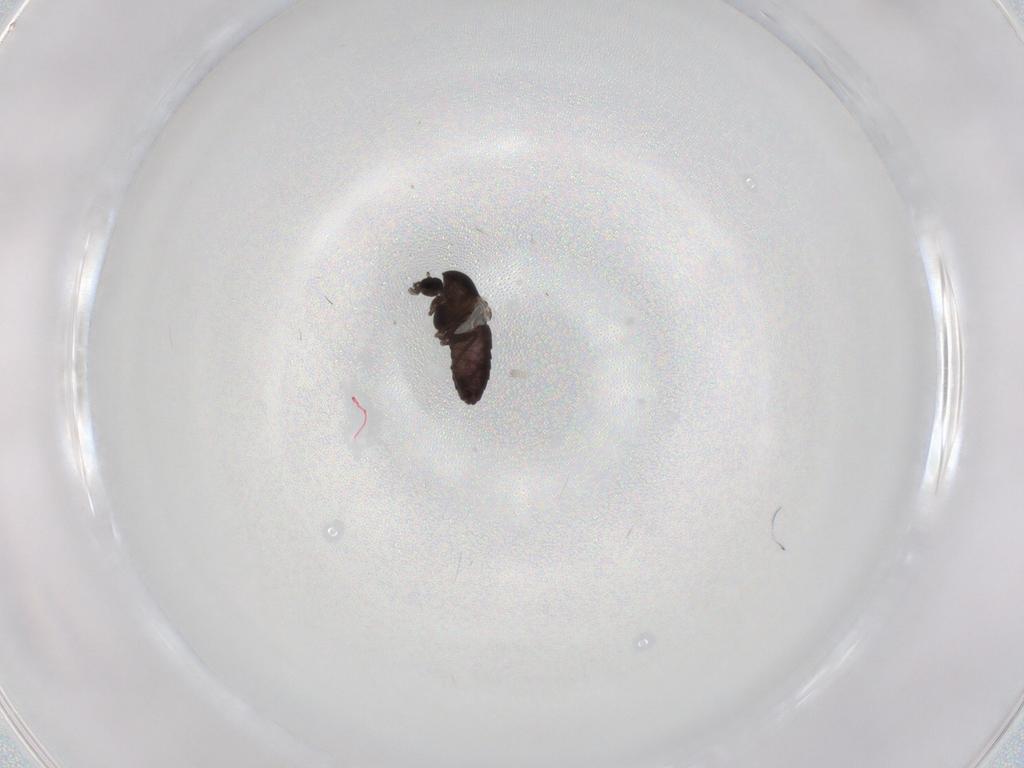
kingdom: Animalia
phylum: Arthropoda
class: Insecta
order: Diptera
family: Chironomidae
